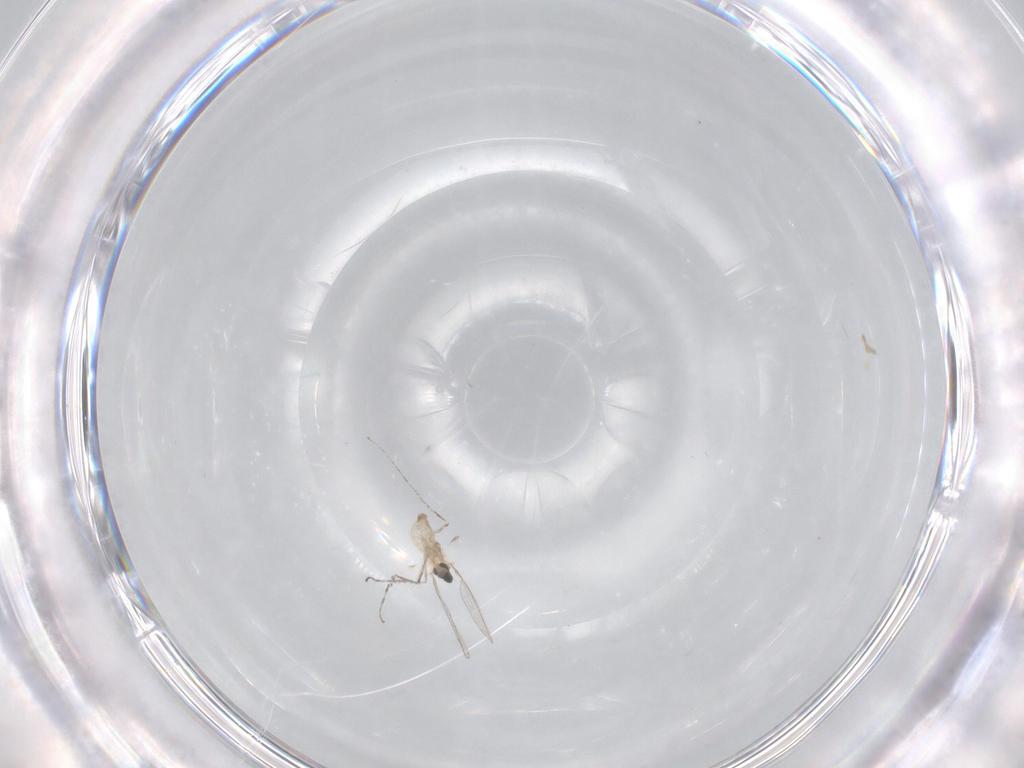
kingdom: Animalia
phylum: Arthropoda
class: Insecta
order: Diptera
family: Cecidomyiidae
